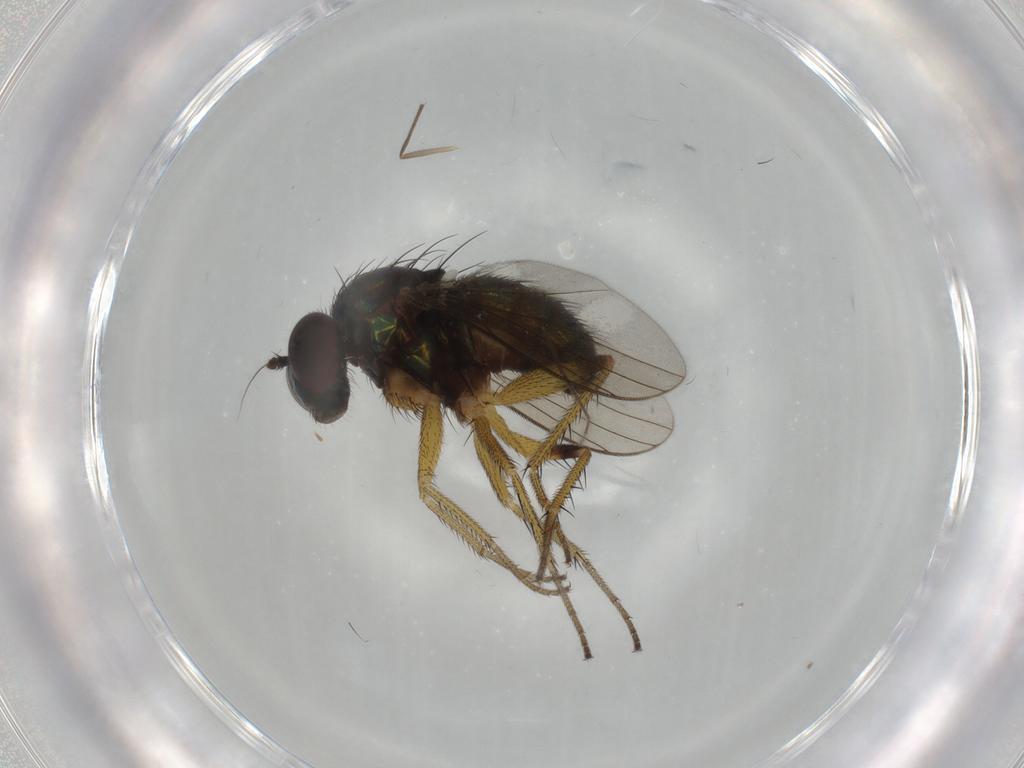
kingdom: Animalia
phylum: Arthropoda
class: Insecta
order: Diptera
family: Dolichopodidae
